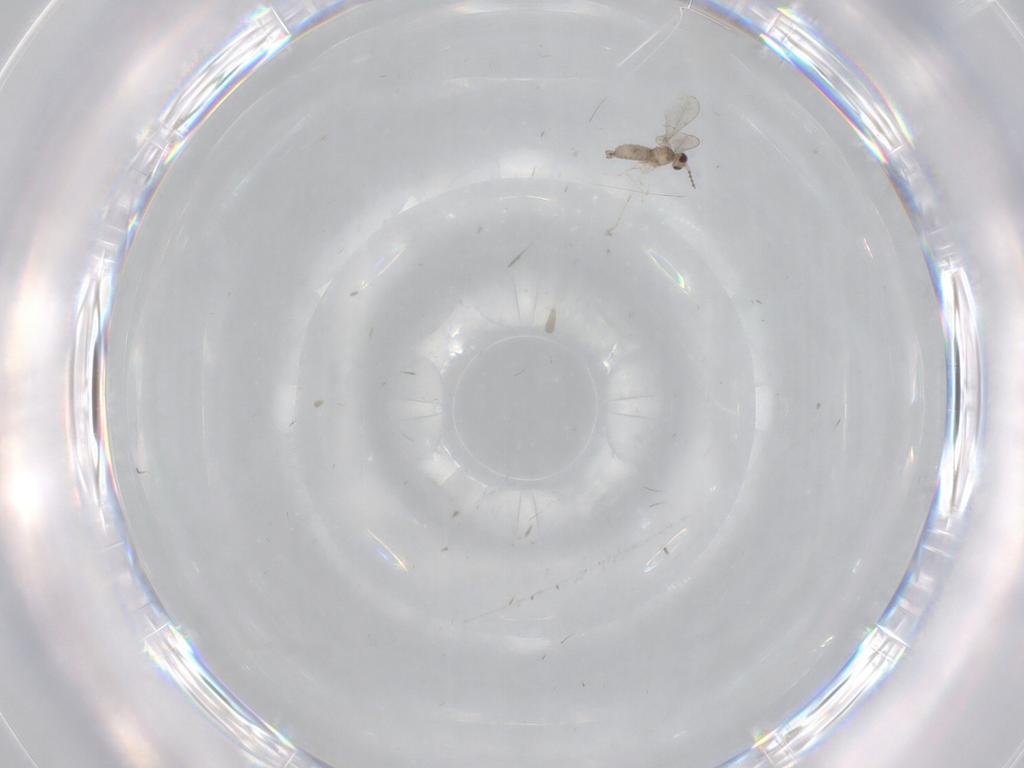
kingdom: Animalia
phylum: Arthropoda
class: Insecta
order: Diptera
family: Cecidomyiidae
